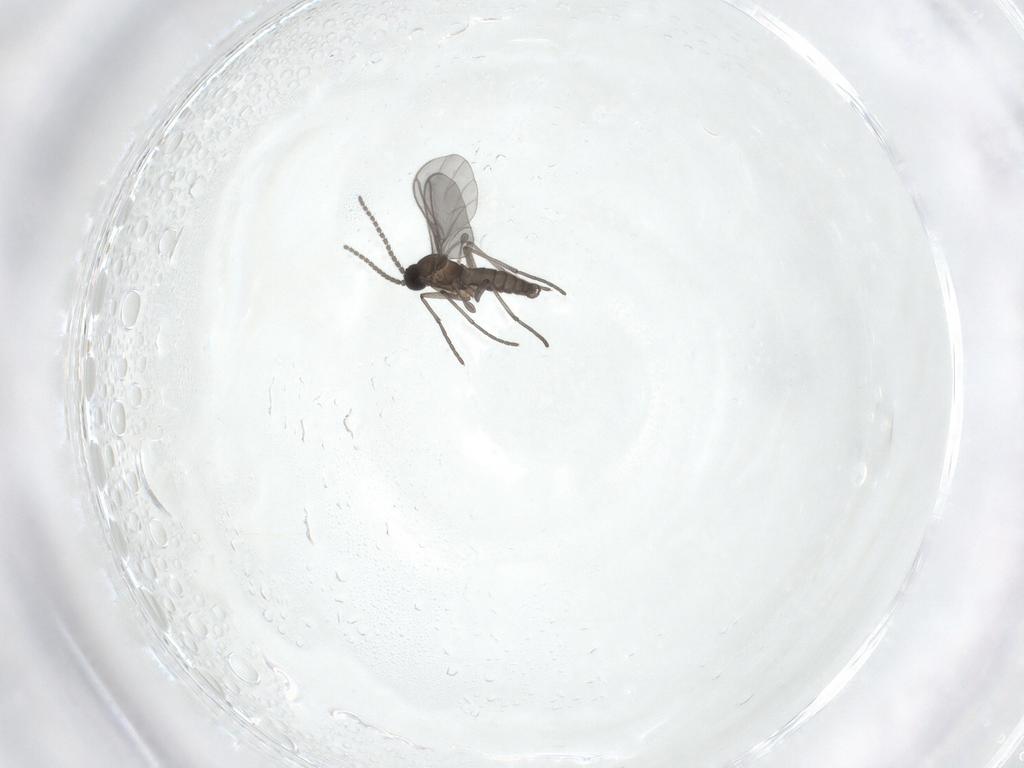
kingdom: Animalia
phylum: Arthropoda
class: Insecta
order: Diptera
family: Sciaridae
